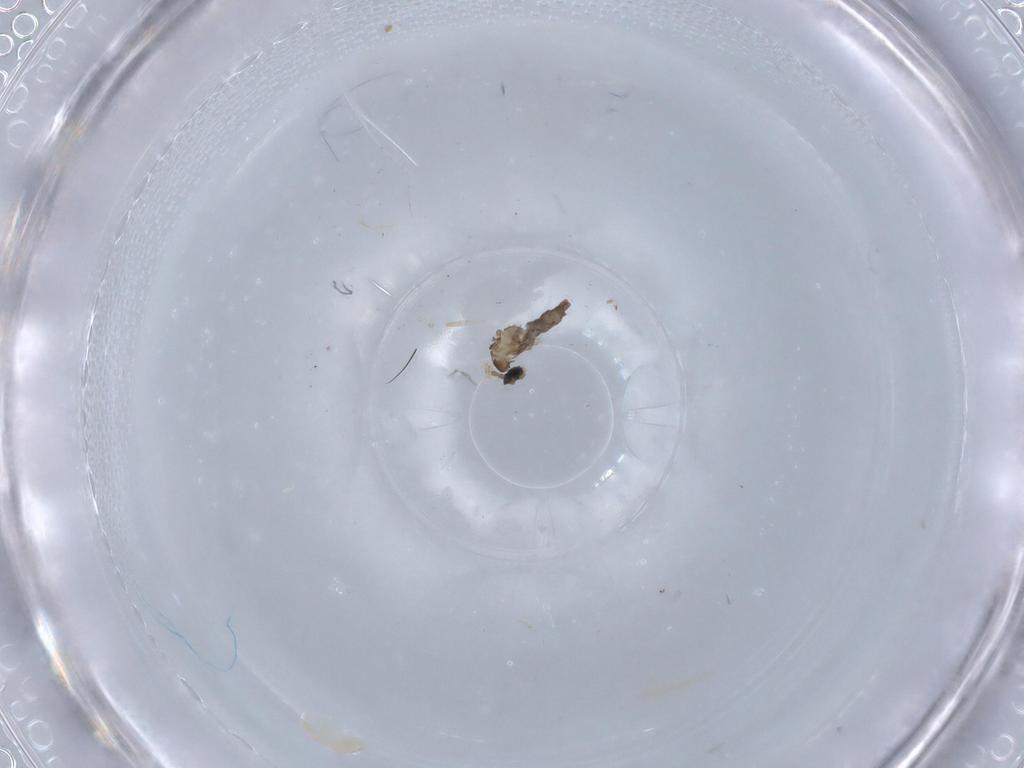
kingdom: Animalia
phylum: Arthropoda
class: Insecta
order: Diptera
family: Cecidomyiidae
